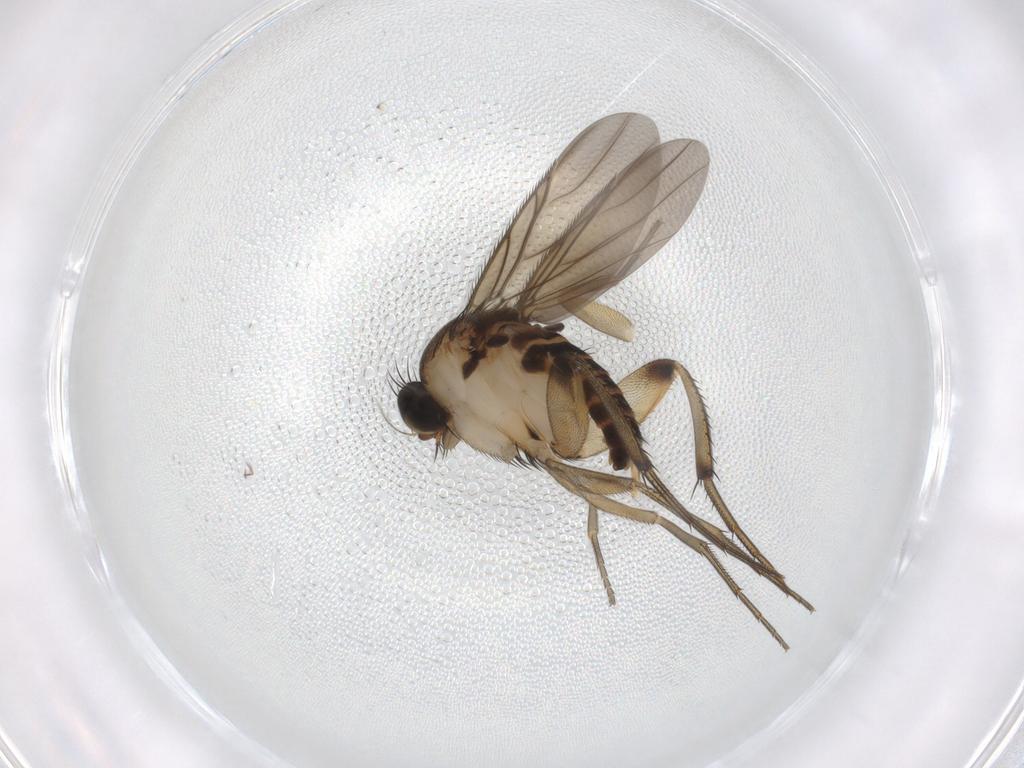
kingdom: Animalia
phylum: Arthropoda
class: Insecta
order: Diptera
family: Phoridae
